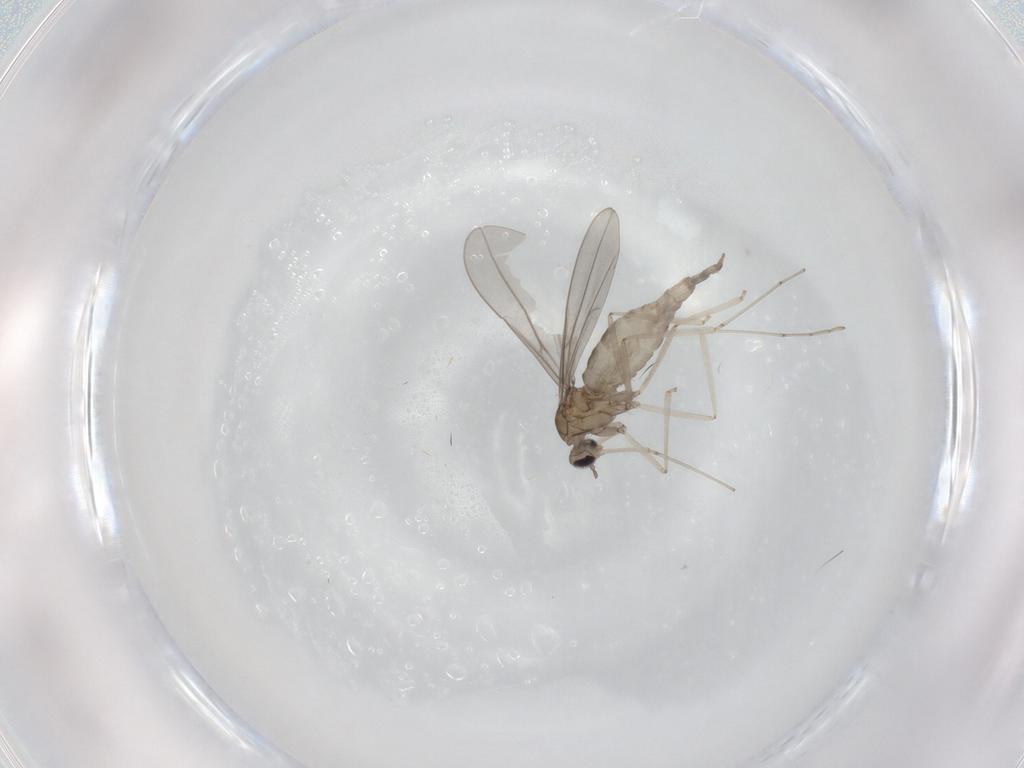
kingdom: Animalia
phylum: Arthropoda
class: Insecta
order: Diptera
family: Cecidomyiidae
